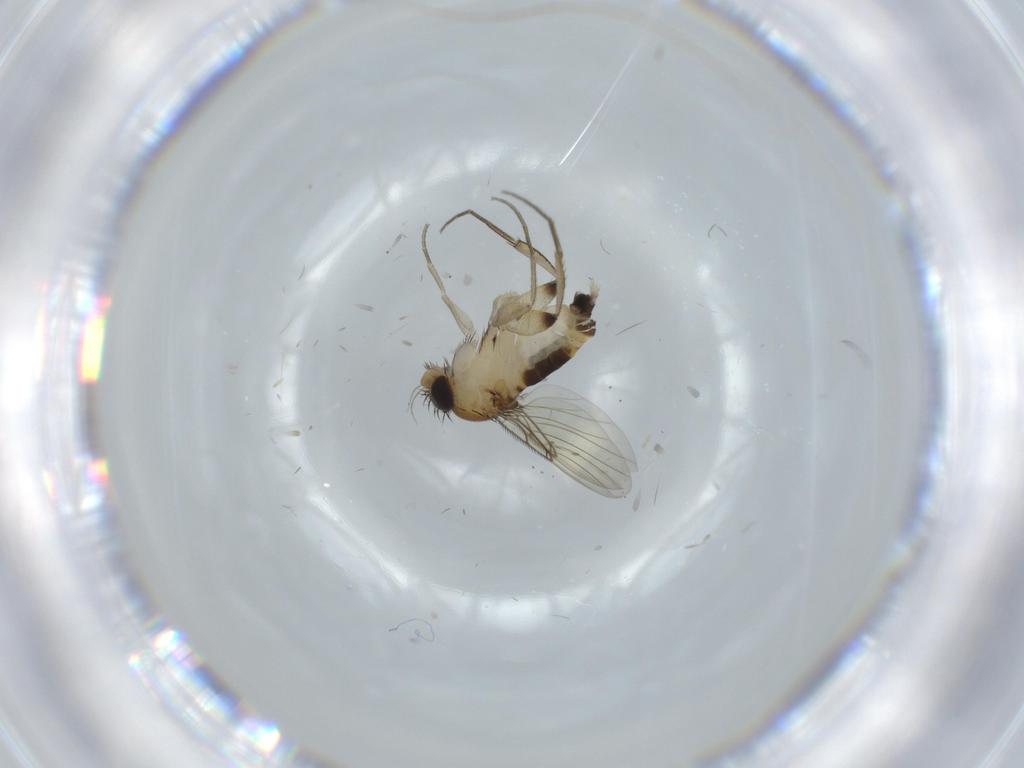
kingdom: Animalia
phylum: Arthropoda
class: Insecta
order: Diptera
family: Phoridae
